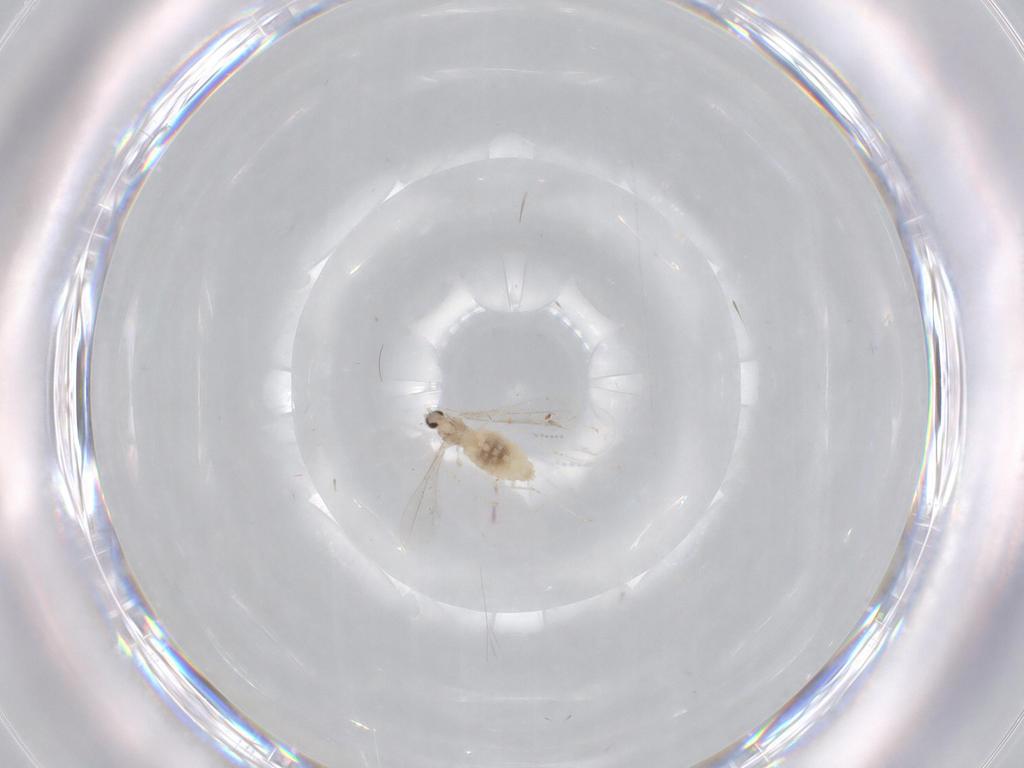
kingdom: Animalia
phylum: Arthropoda
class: Insecta
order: Diptera
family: Cecidomyiidae
